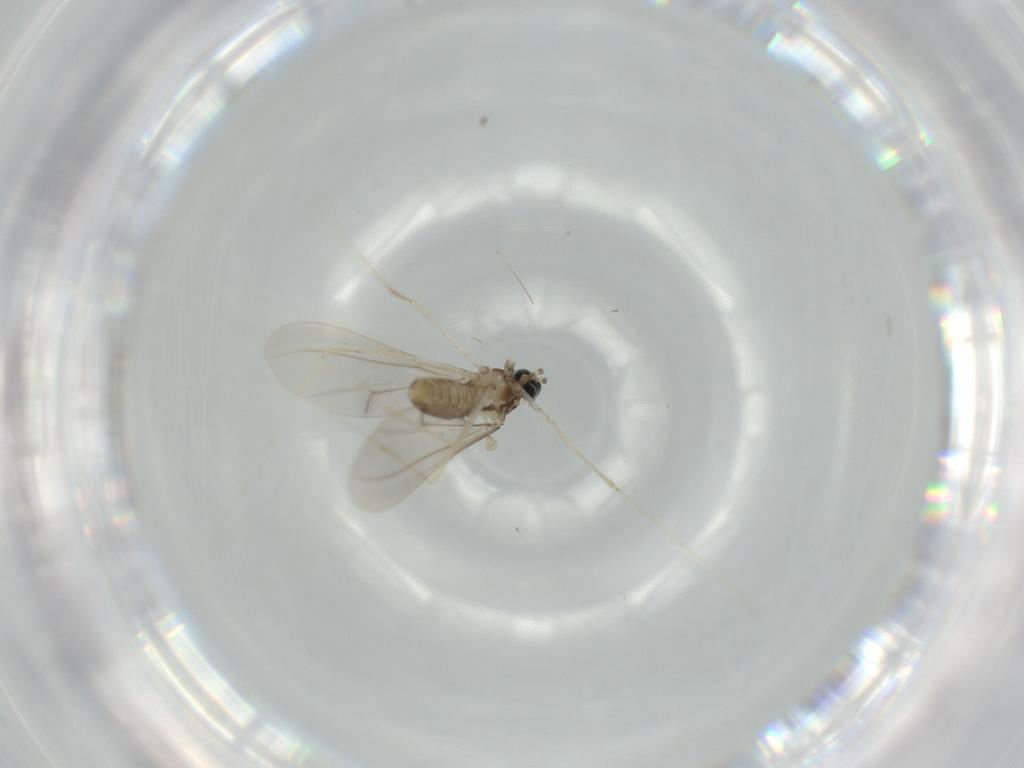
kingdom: Animalia
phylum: Arthropoda
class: Insecta
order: Diptera
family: Cecidomyiidae
